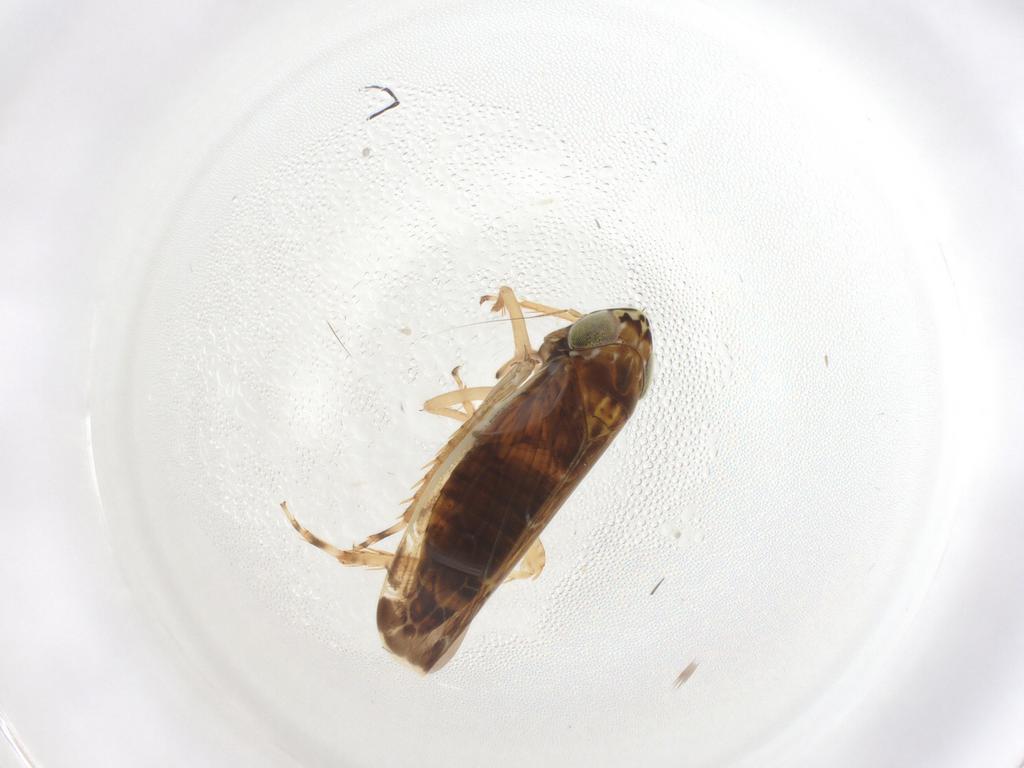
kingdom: Animalia
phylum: Arthropoda
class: Insecta
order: Hemiptera
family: Cicadellidae
